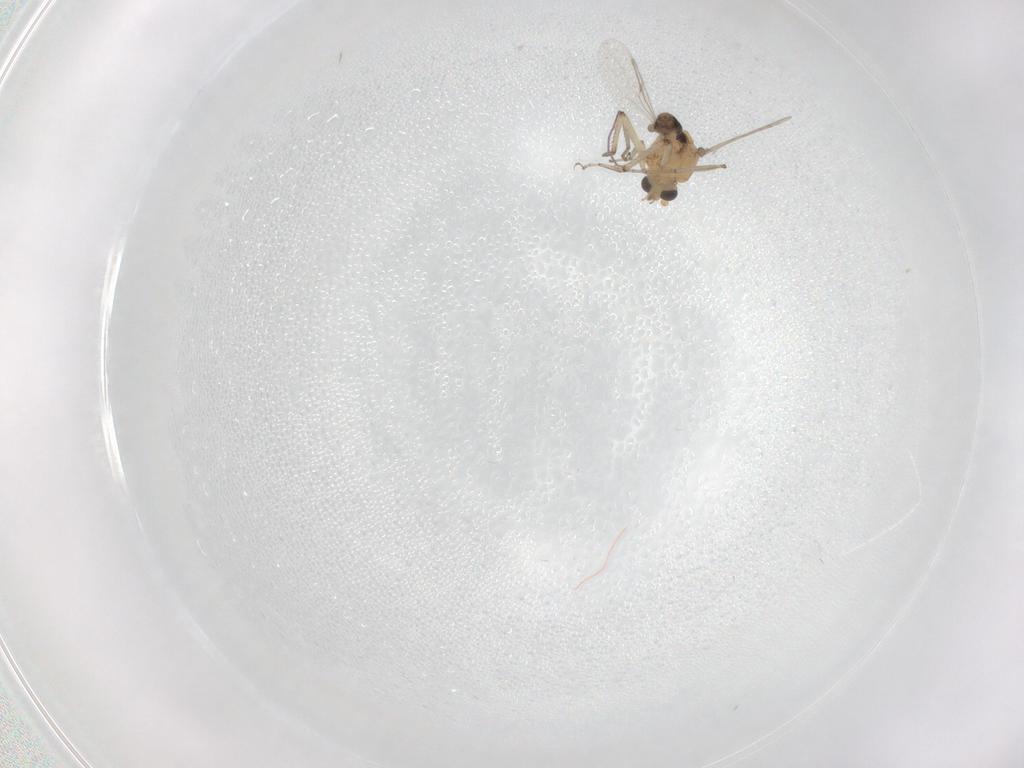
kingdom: Animalia
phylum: Arthropoda
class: Insecta
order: Diptera
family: Ceratopogonidae
